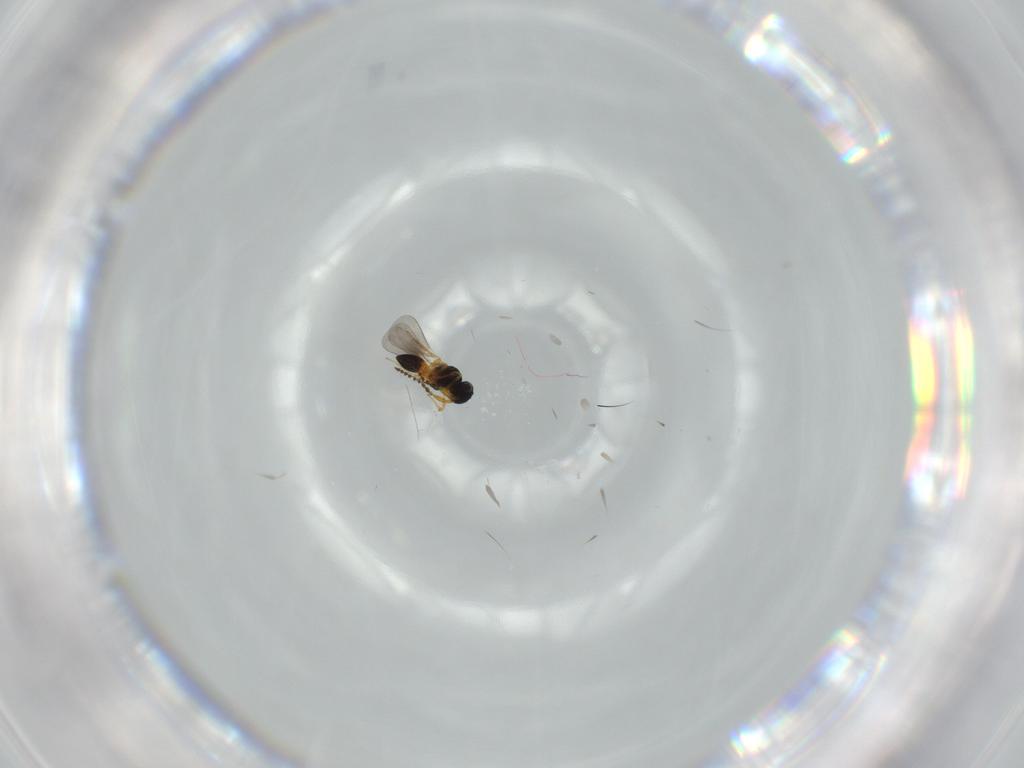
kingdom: Animalia
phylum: Arthropoda
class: Insecta
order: Hymenoptera
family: Platygastridae
